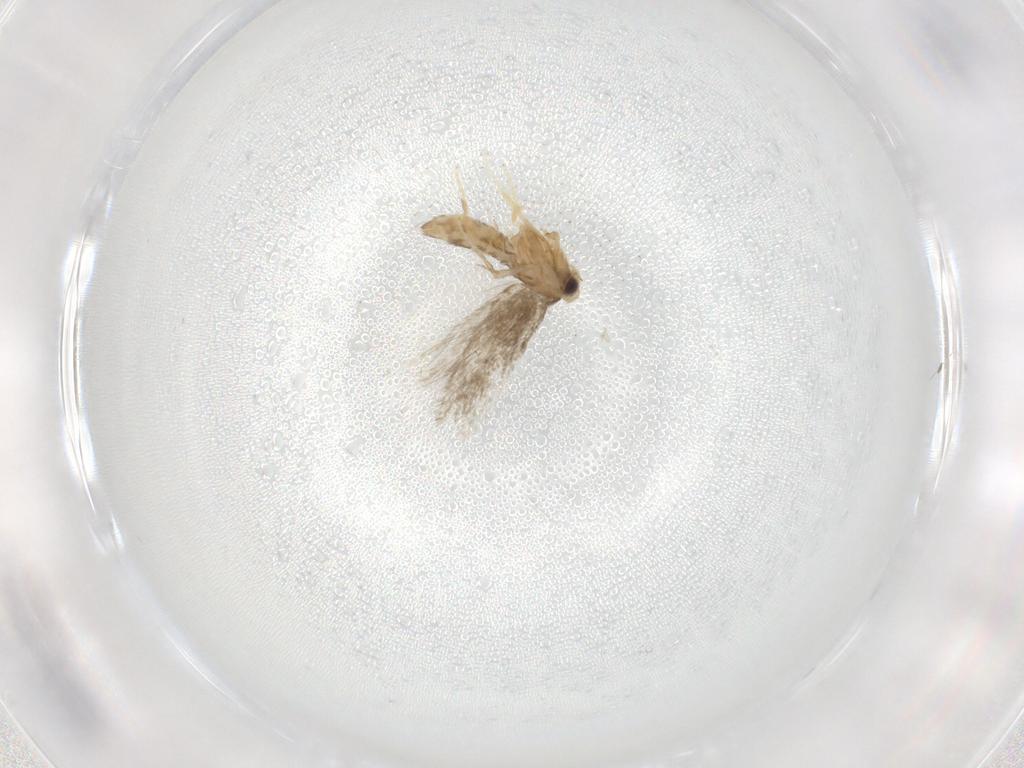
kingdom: Animalia
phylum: Arthropoda
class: Insecta
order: Lepidoptera
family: Nepticulidae
